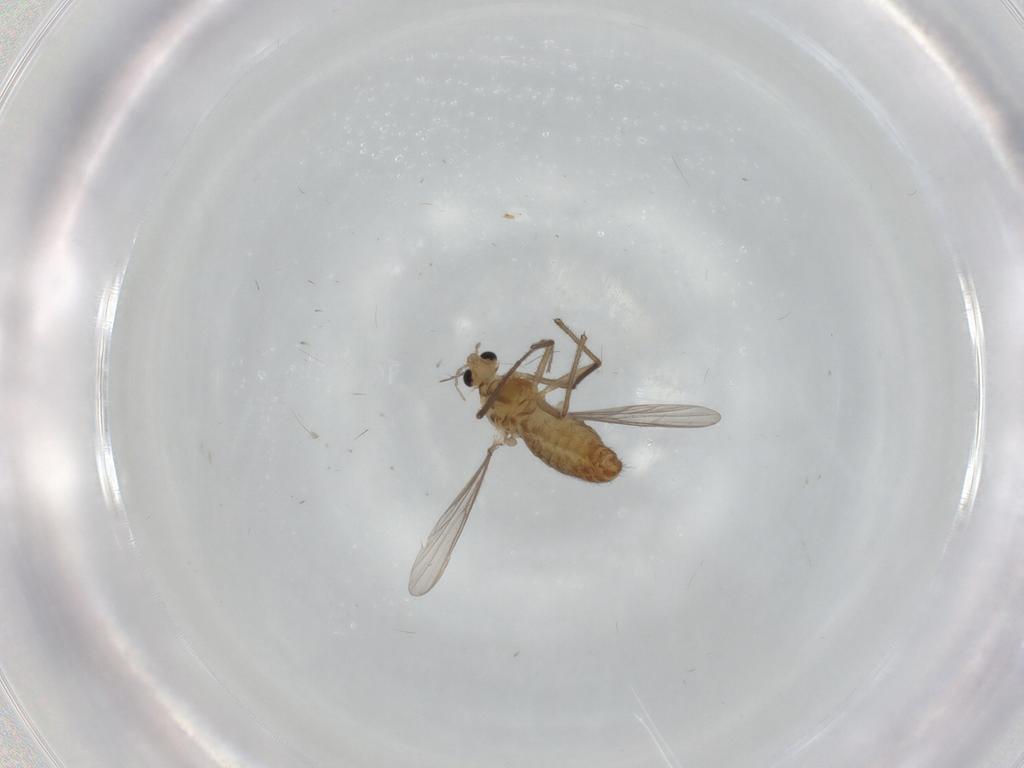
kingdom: Animalia
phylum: Arthropoda
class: Insecta
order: Diptera
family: Chironomidae
